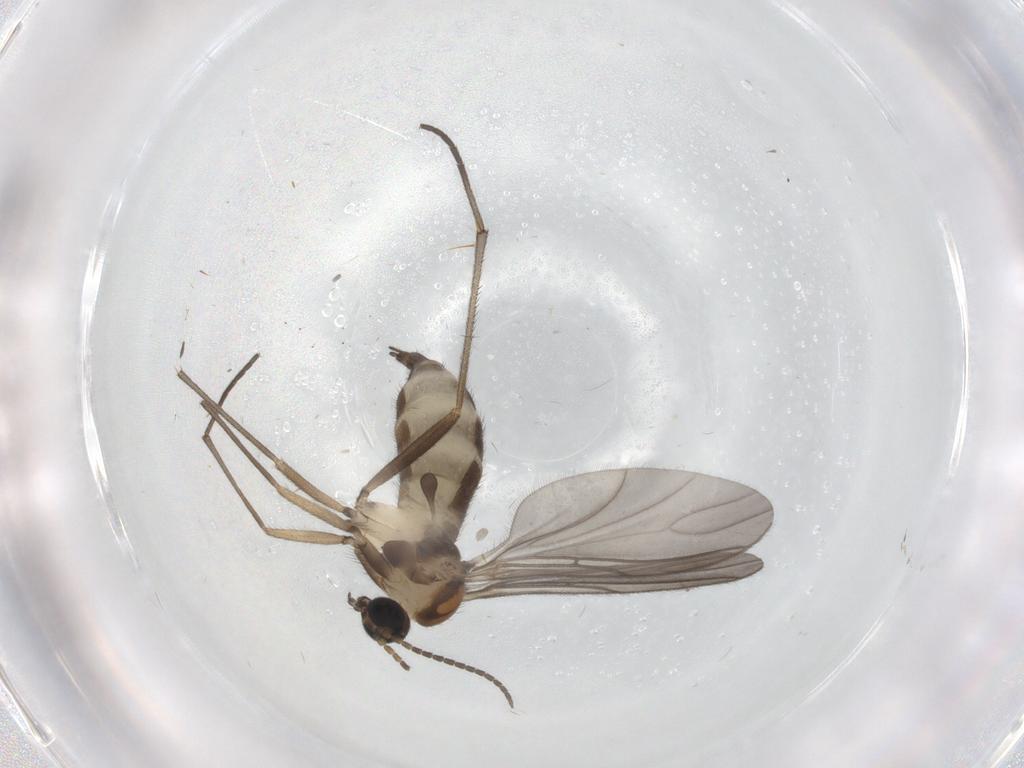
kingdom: Animalia
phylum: Arthropoda
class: Insecta
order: Diptera
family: Sciaridae
